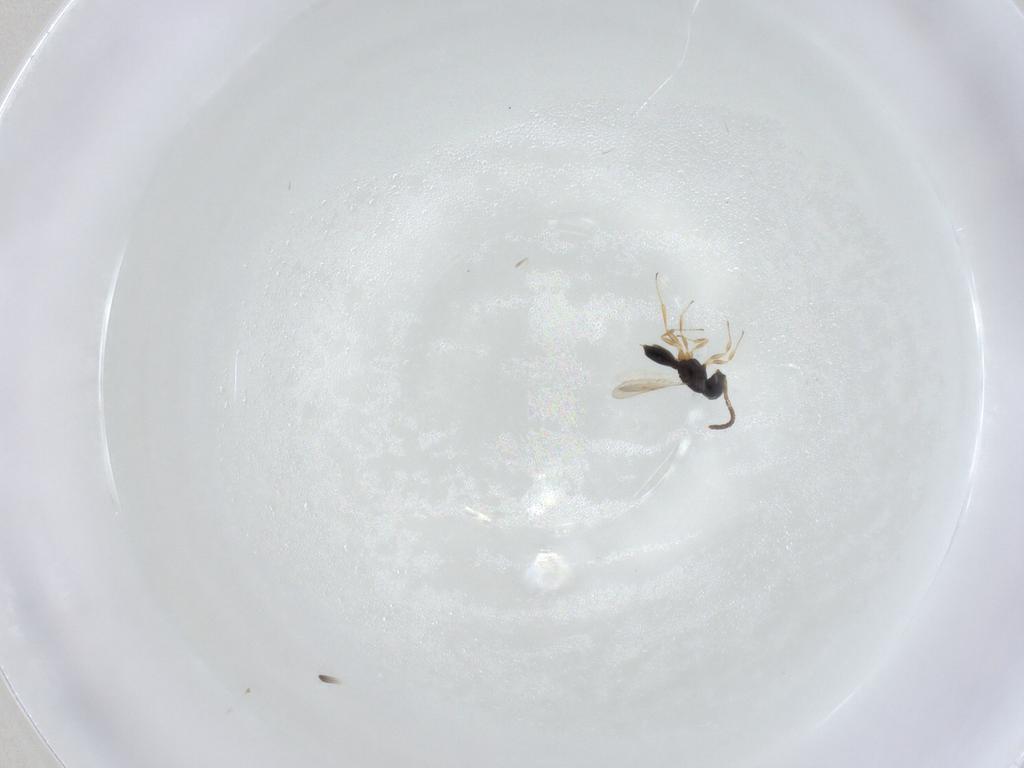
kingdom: Animalia
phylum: Arthropoda
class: Insecta
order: Hymenoptera
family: Scelionidae
